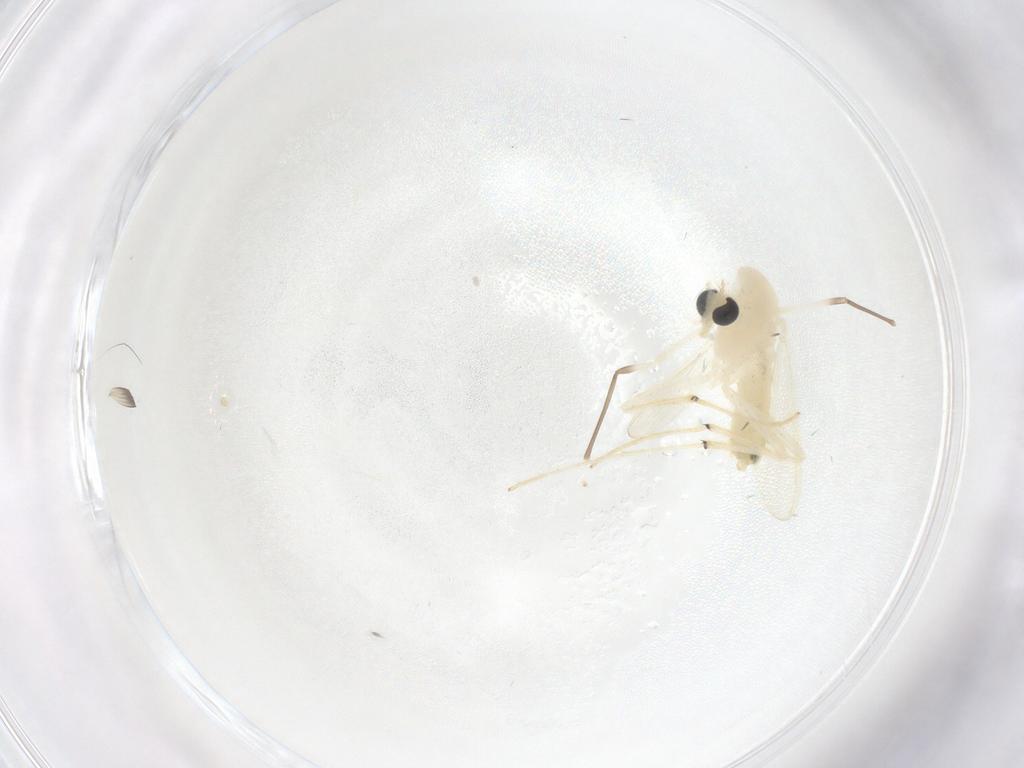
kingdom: Animalia
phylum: Arthropoda
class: Insecta
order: Diptera
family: Cecidomyiidae
